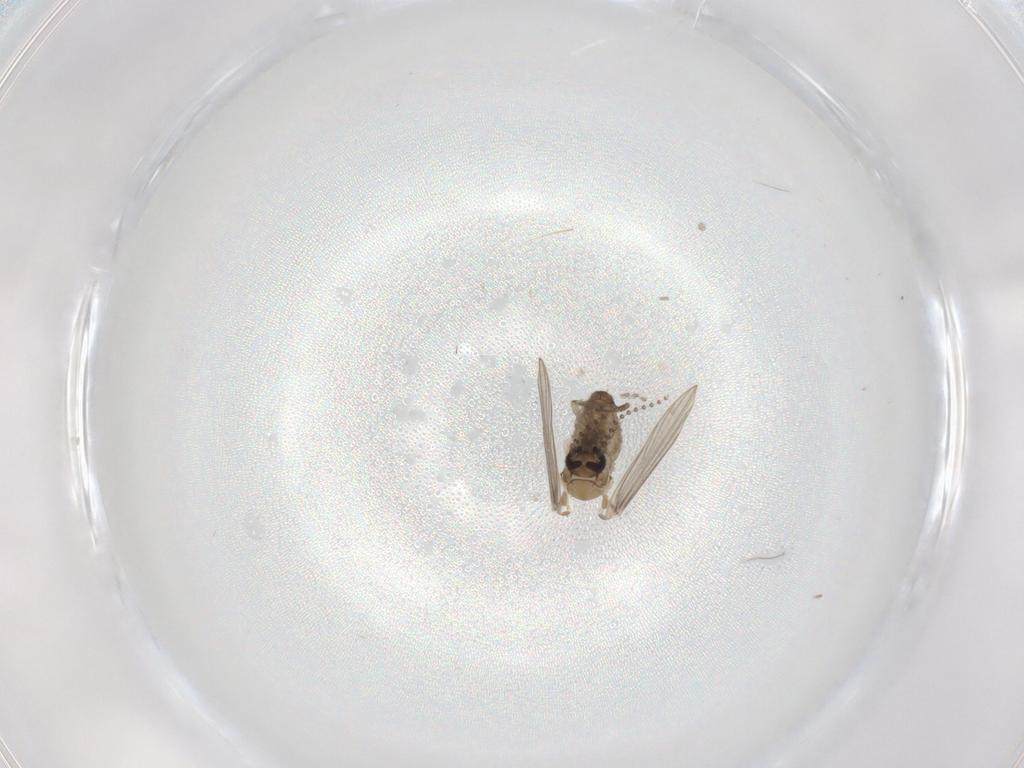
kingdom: Animalia
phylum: Arthropoda
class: Insecta
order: Diptera
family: Psychodidae
